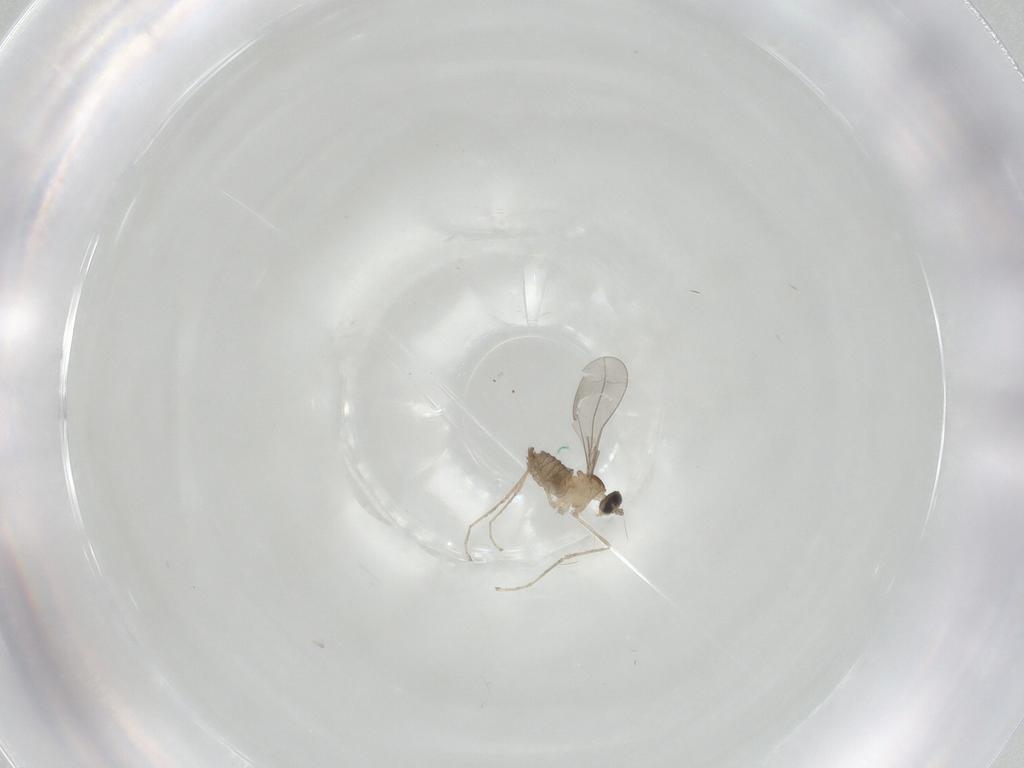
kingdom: Animalia
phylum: Arthropoda
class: Insecta
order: Diptera
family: Cecidomyiidae
